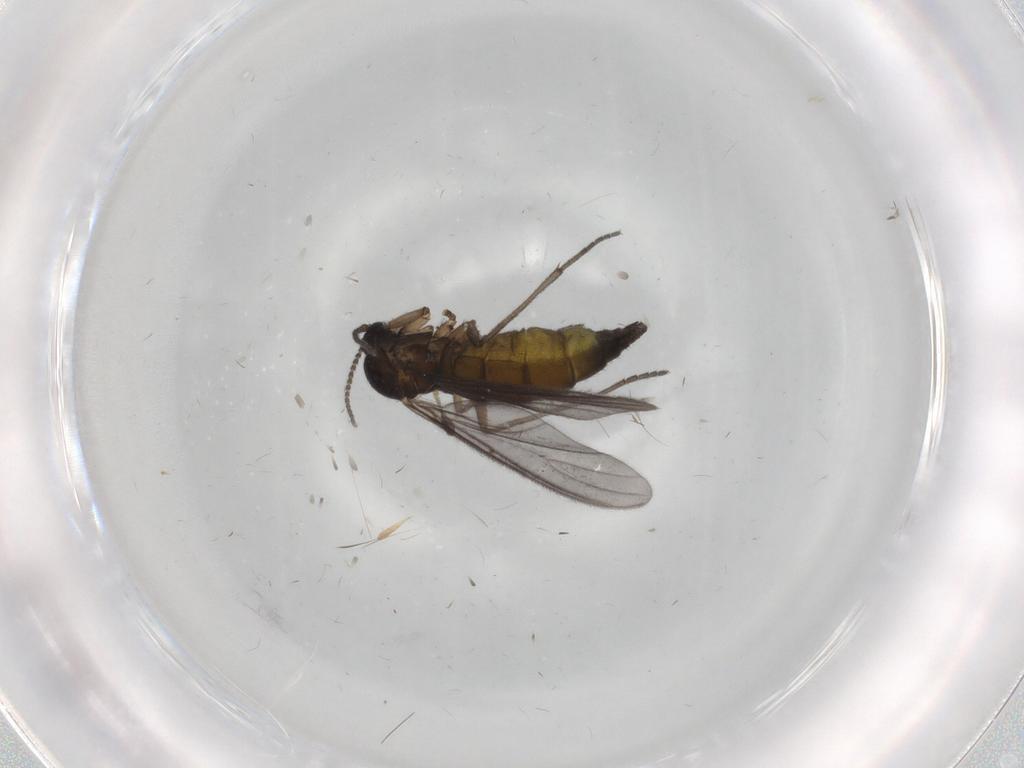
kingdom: Animalia
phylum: Arthropoda
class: Insecta
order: Diptera
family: Sciaridae
